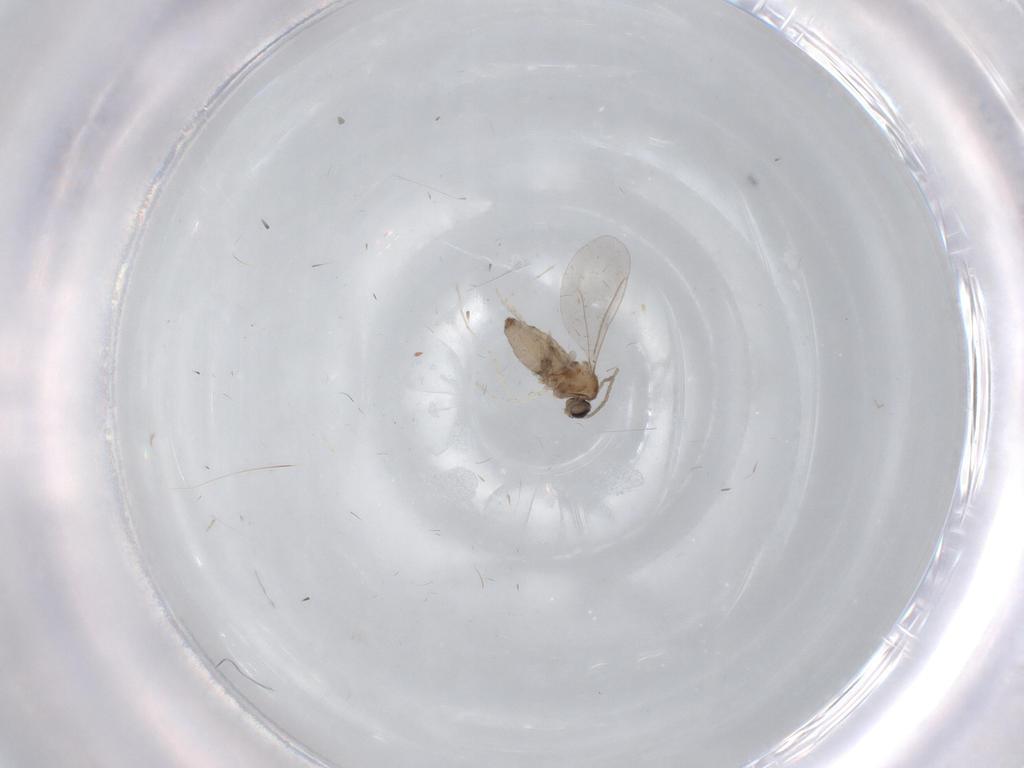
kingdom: Animalia
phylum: Arthropoda
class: Insecta
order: Diptera
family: Cecidomyiidae
